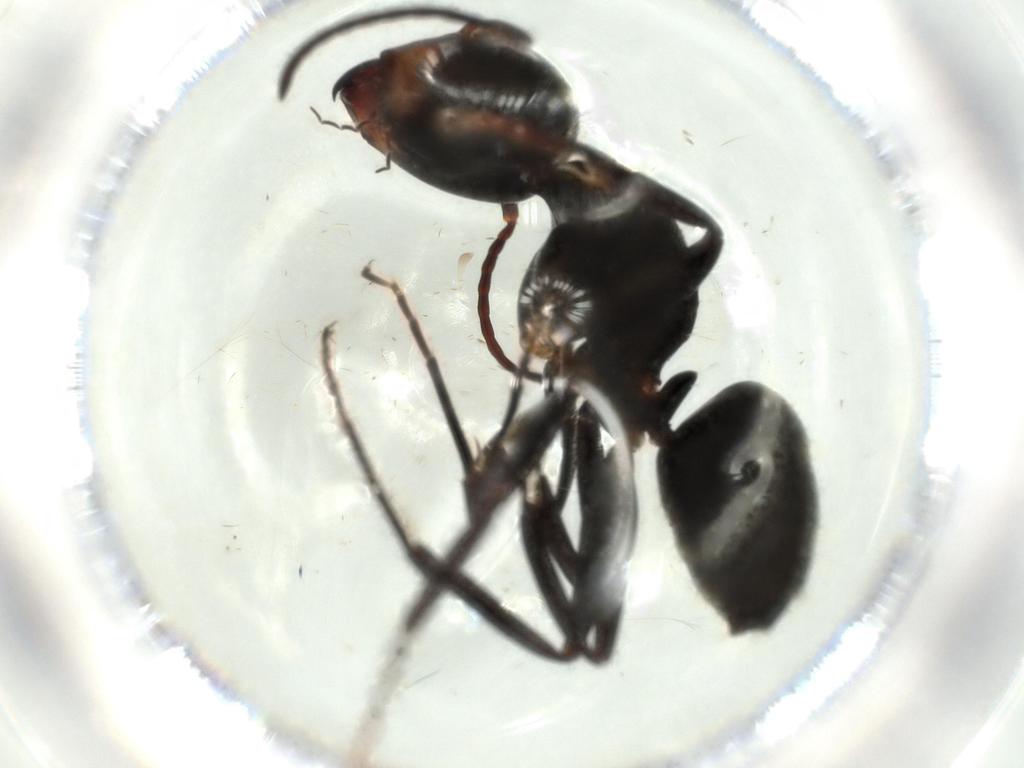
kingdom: Animalia
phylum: Arthropoda
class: Insecta
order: Hymenoptera
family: Formicidae
